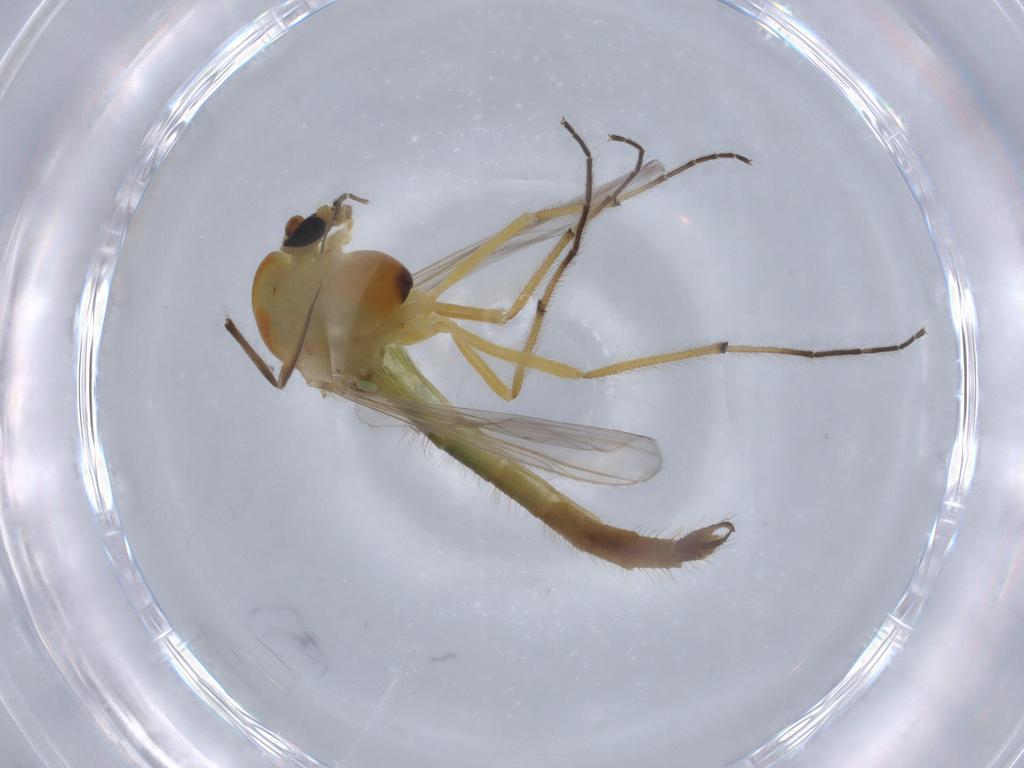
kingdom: Animalia
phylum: Arthropoda
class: Insecta
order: Diptera
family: Chironomidae
